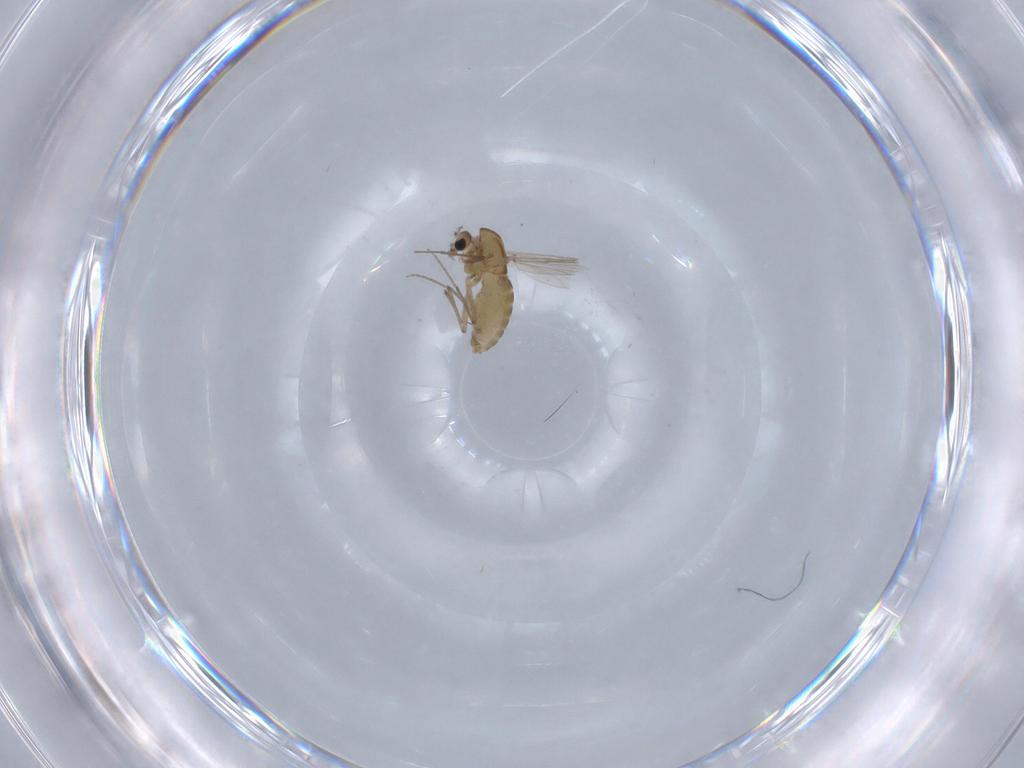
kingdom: Animalia
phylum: Arthropoda
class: Insecta
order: Diptera
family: Chironomidae
